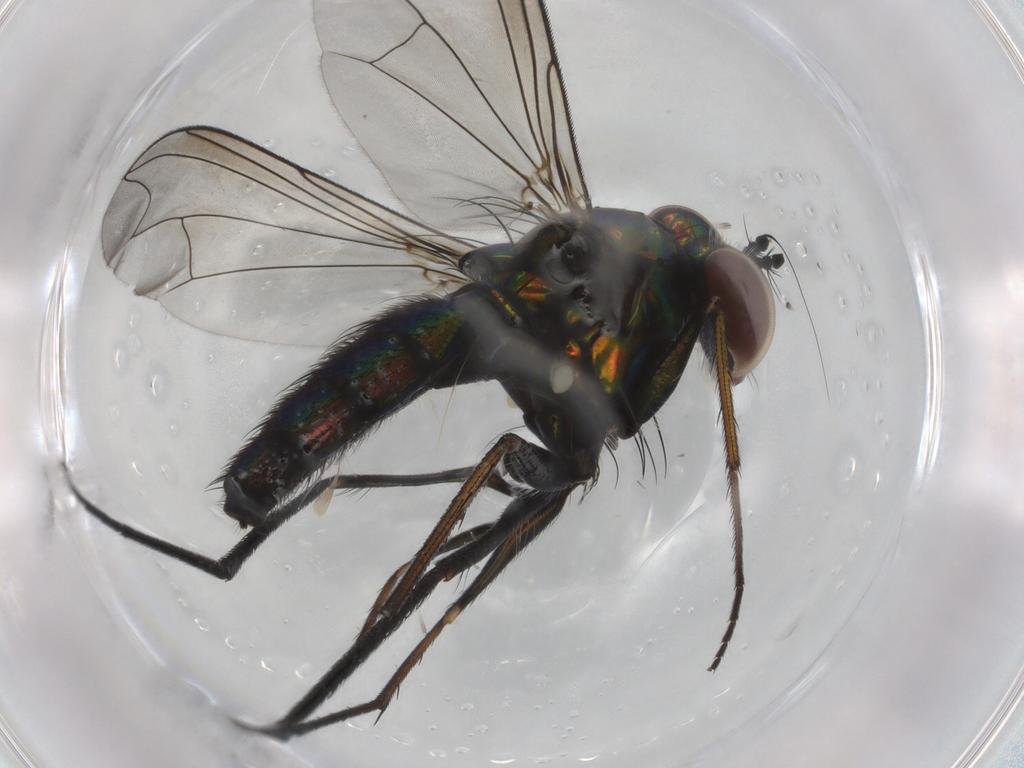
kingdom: Animalia
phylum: Arthropoda
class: Insecta
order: Diptera
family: Dolichopodidae
